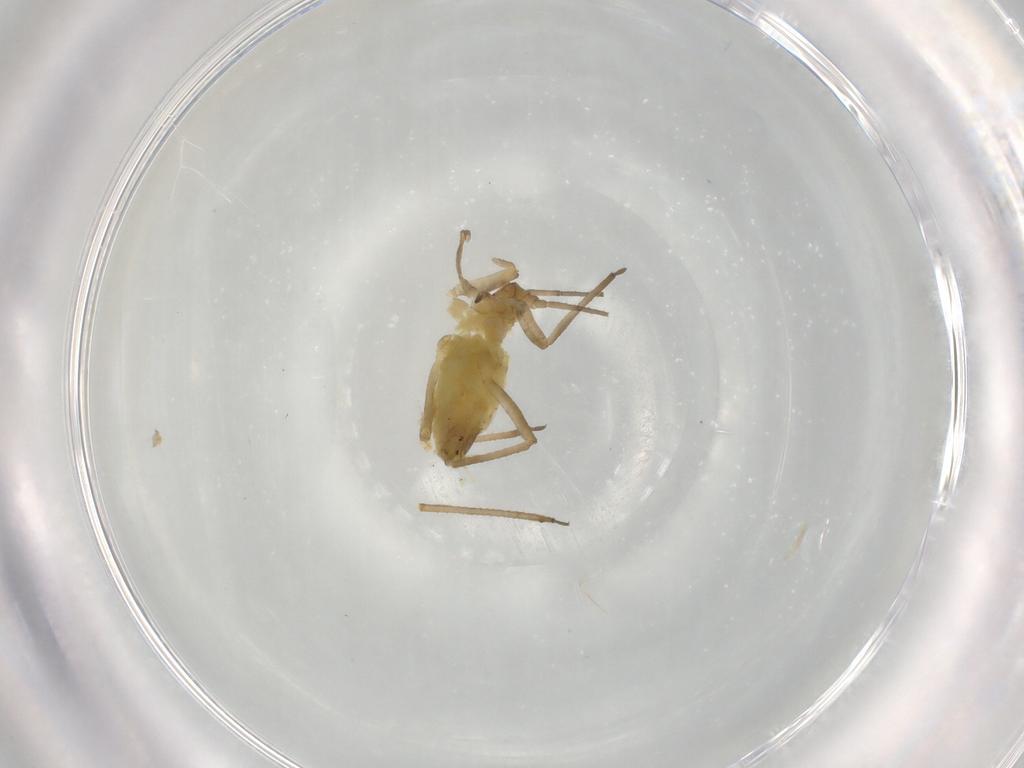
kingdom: Animalia
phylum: Arthropoda
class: Insecta
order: Hemiptera
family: Aphididae
